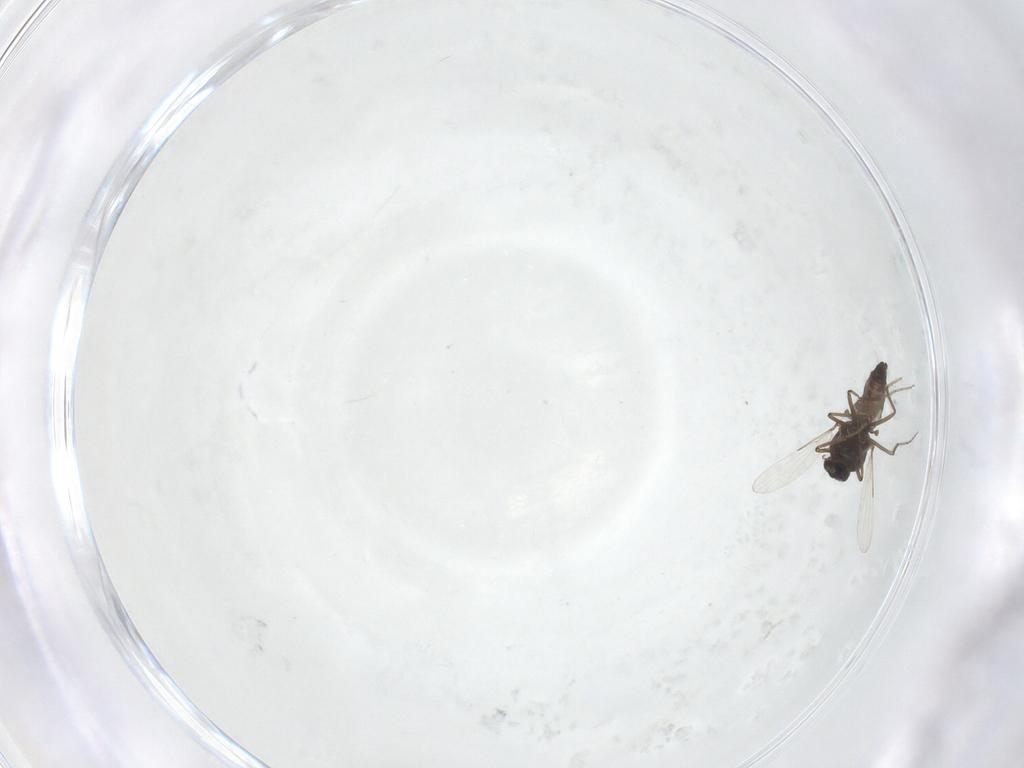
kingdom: Animalia
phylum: Arthropoda
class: Insecta
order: Diptera
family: Ceratopogonidae
